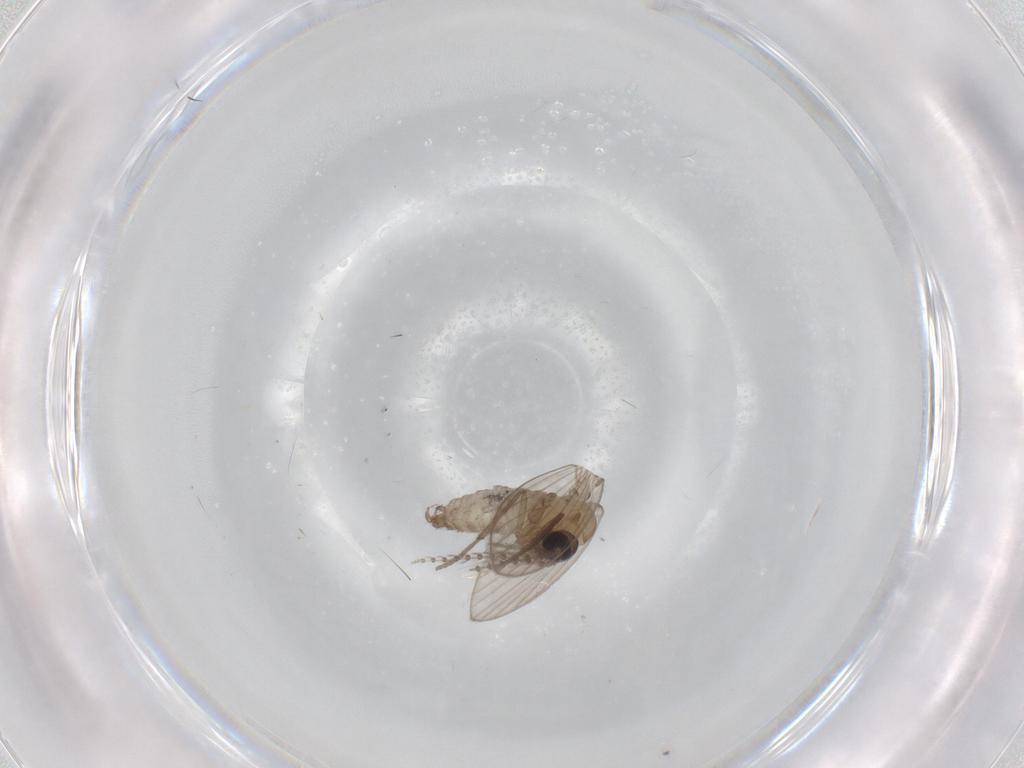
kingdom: Animalia
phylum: Arthropoda
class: Insecta
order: Diptera
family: Psychodidae
